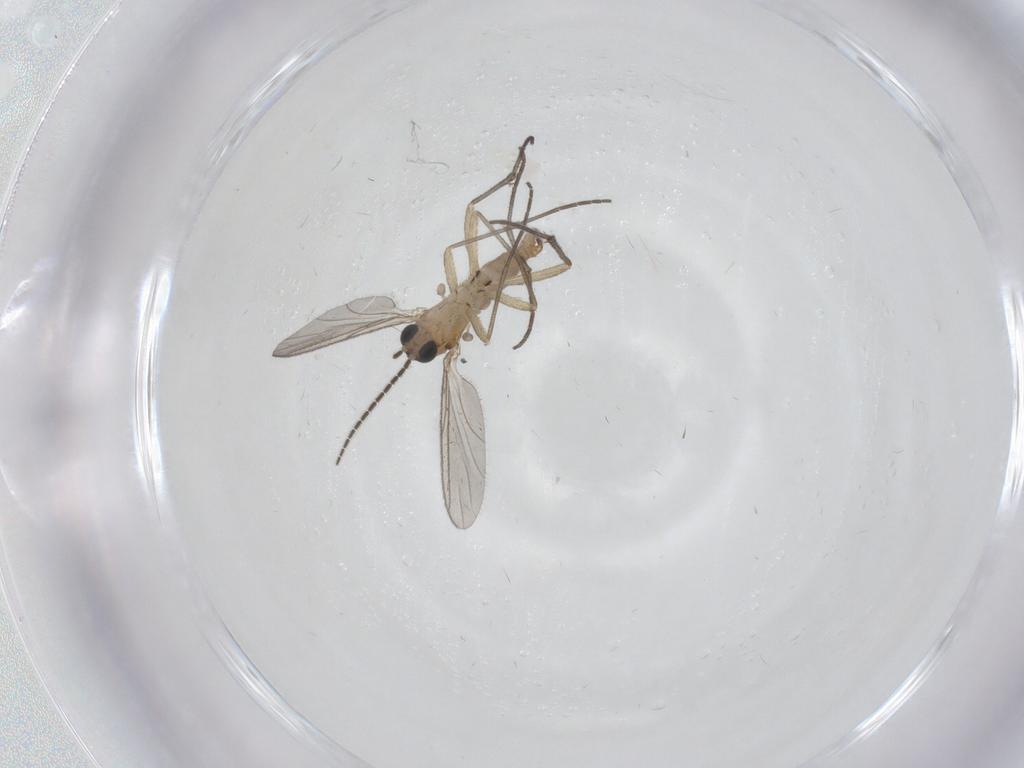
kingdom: Animalia
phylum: Arthropoda
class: Insecta
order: Diptera
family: Sciaridae
